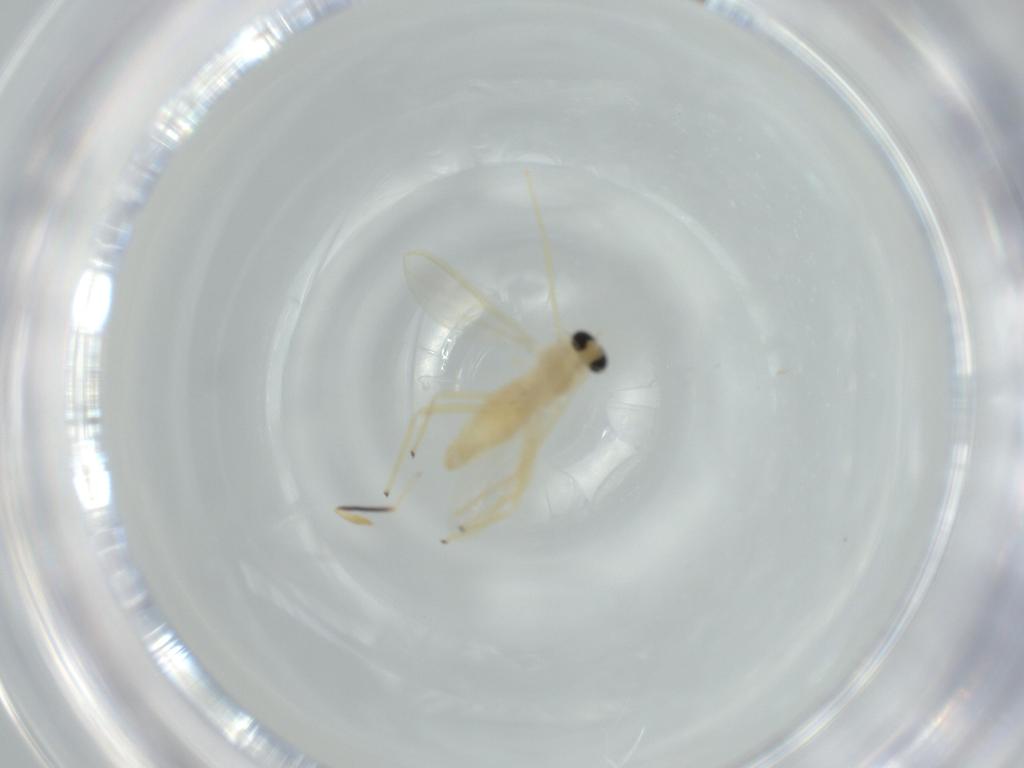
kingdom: Animalia
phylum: Arthropoda
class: Insecta
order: Diptera
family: Chironomidae
